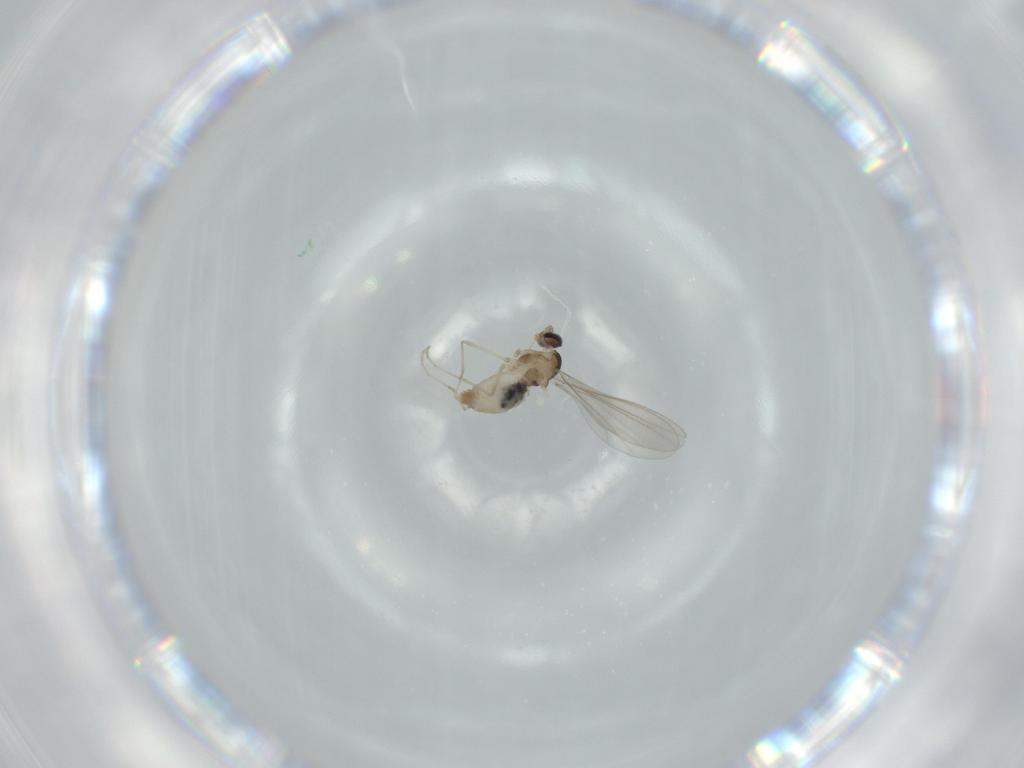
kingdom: Animalia
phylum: Arthropoda
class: Insecta
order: Diptera
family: Cecidomyiidae
